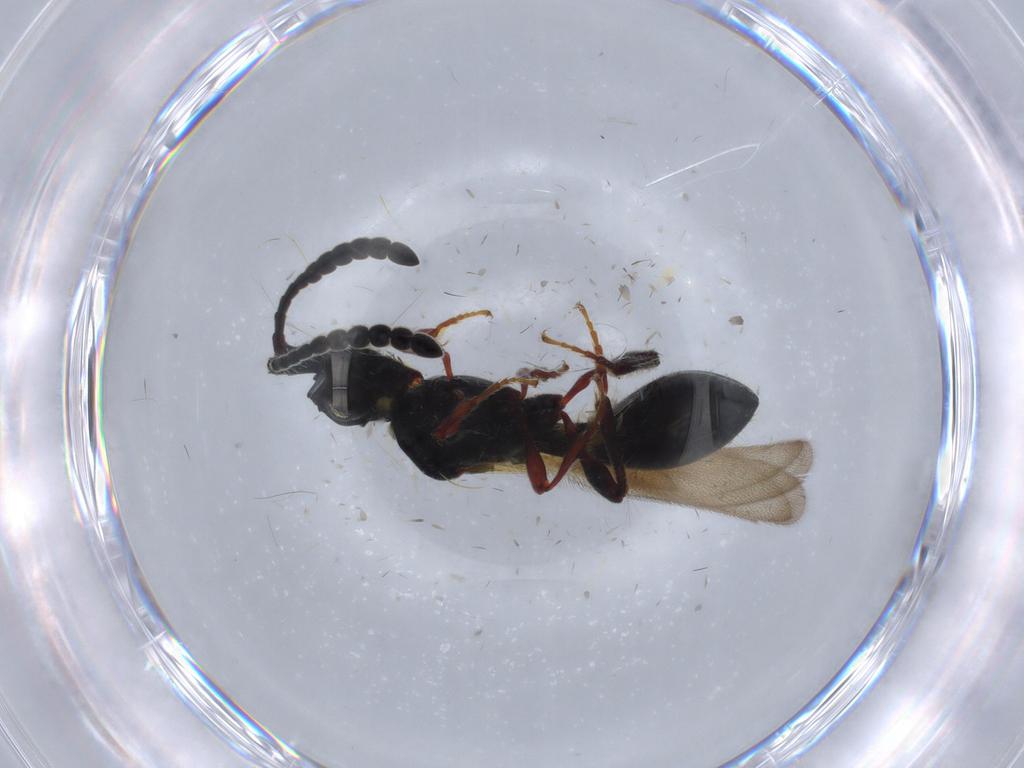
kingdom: Animalia
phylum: Arthropoda
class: Insecta
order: Hymenoptera
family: Diapriidae
